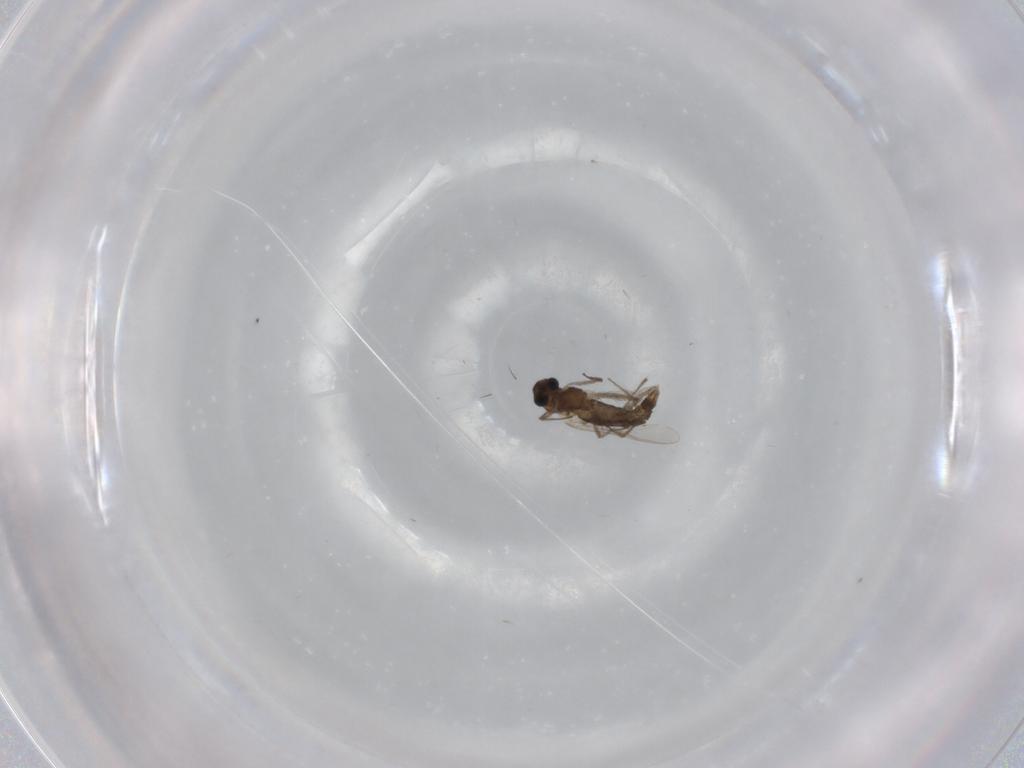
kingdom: Animalia
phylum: Arthropoda
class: Insecta
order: Diptera
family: Chironomidae
